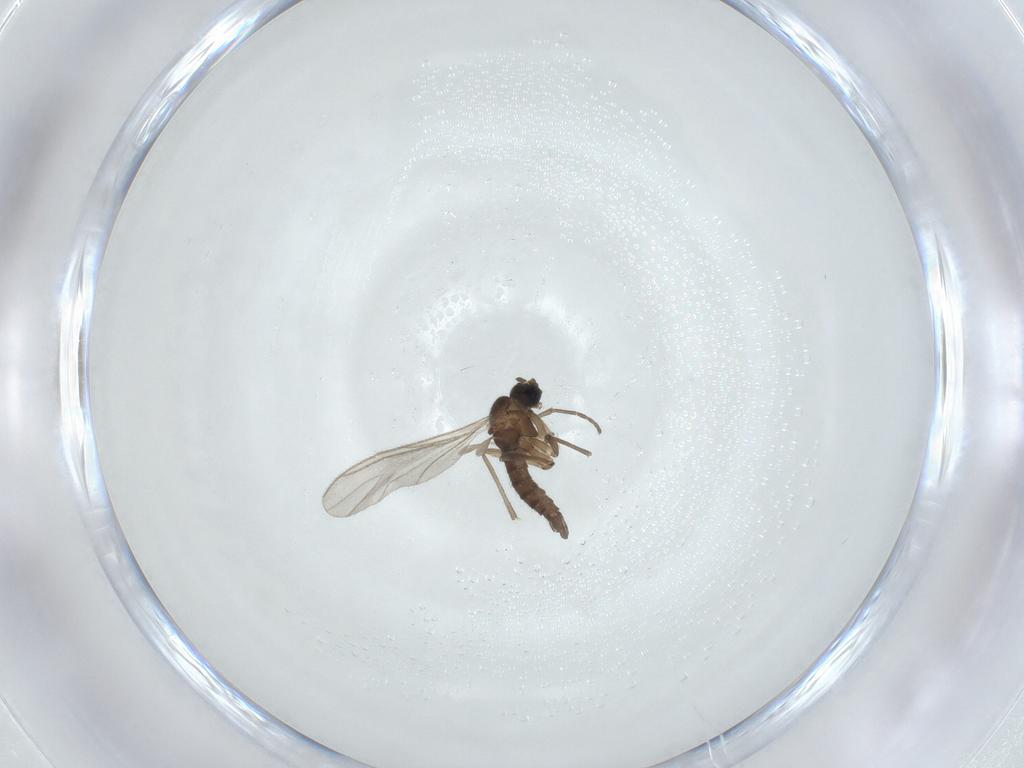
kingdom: Animalia
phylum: Arthropoda
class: Insecta
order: Diptera
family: Sciaridae
